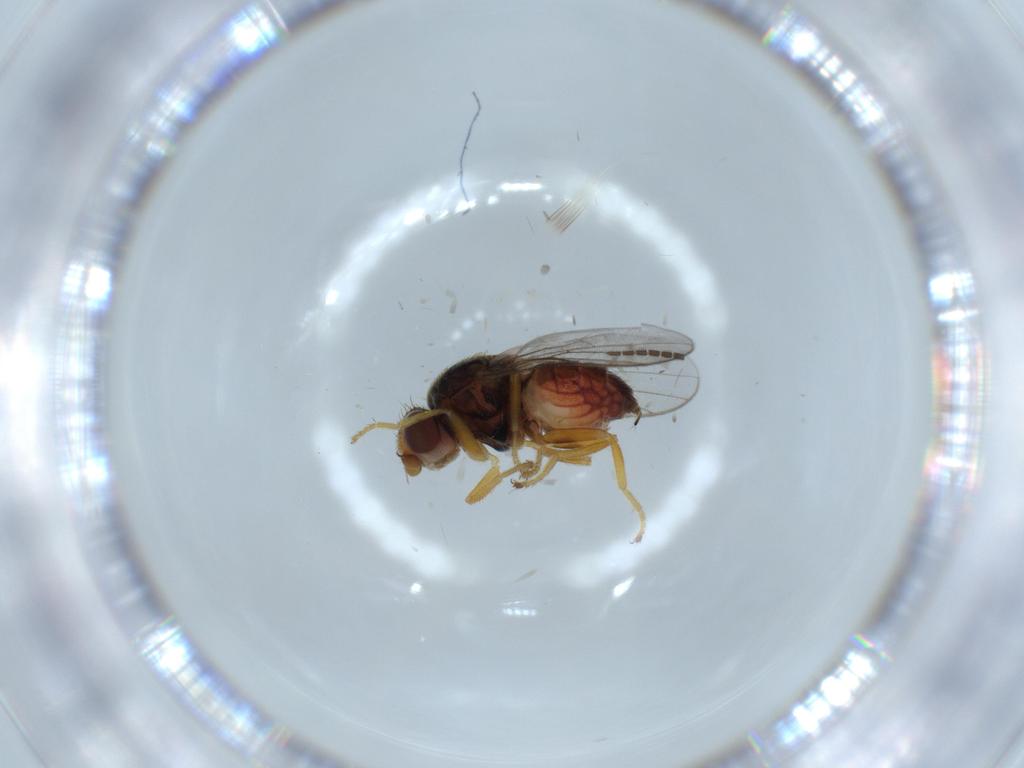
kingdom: Animalia
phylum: Arthropoda
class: Insecta
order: Diptera
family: Chloropidae
